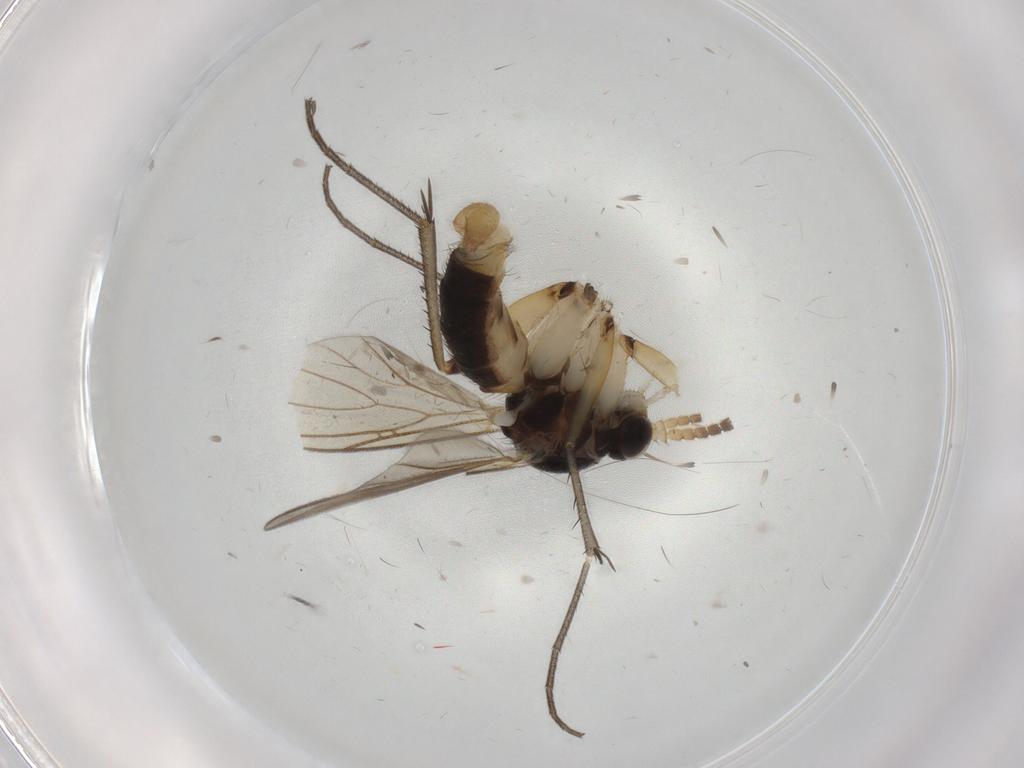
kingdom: Animalia
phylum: Arthropoda
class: Insecta
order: Diptera
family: Sciaridae
